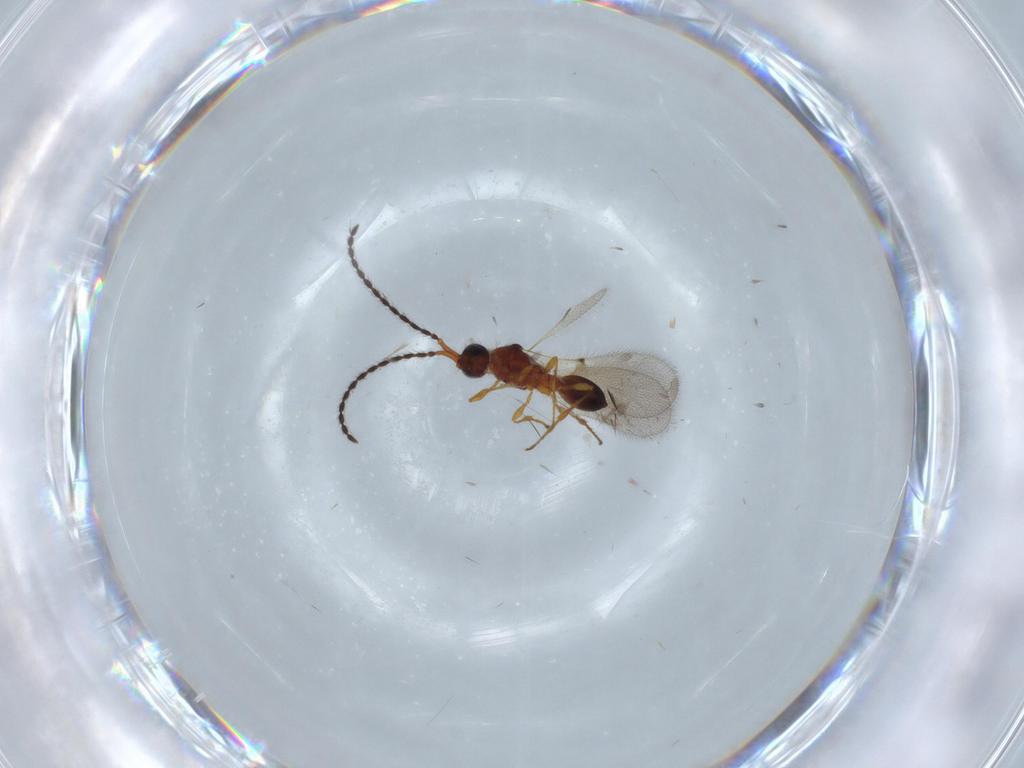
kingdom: Animalia
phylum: Arthropoda
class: Insecta
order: Hymenoptera
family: Diapriidae
